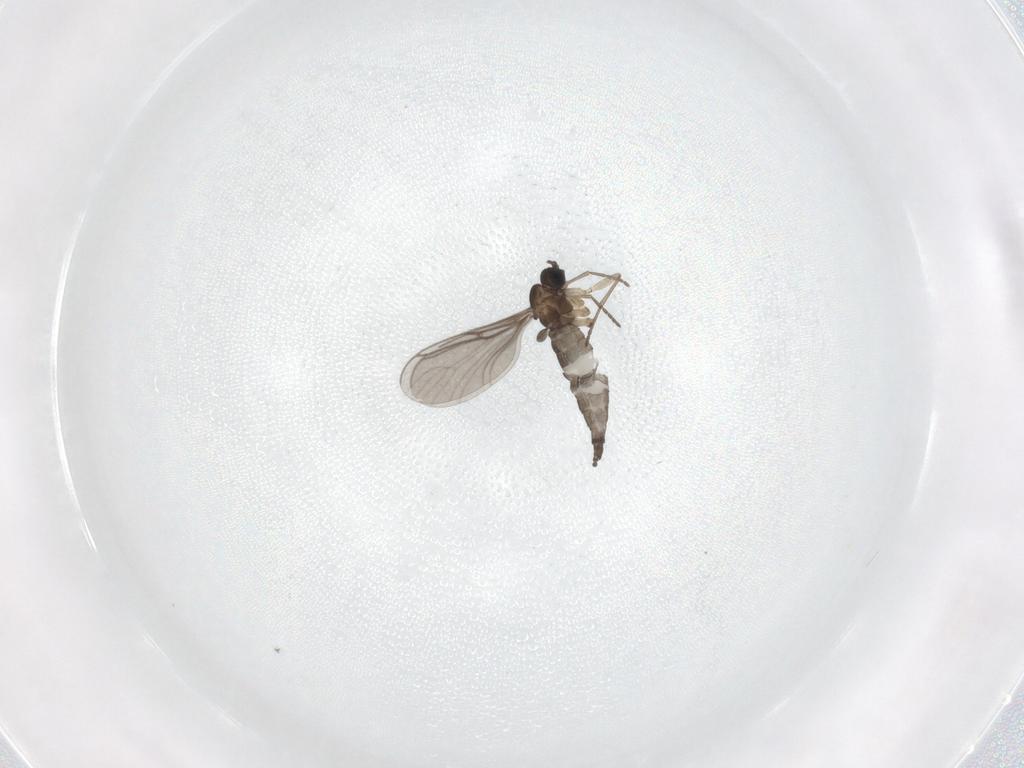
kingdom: Animalia
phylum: Arthropoda
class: Insecta
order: Diptera
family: Sciaridae
